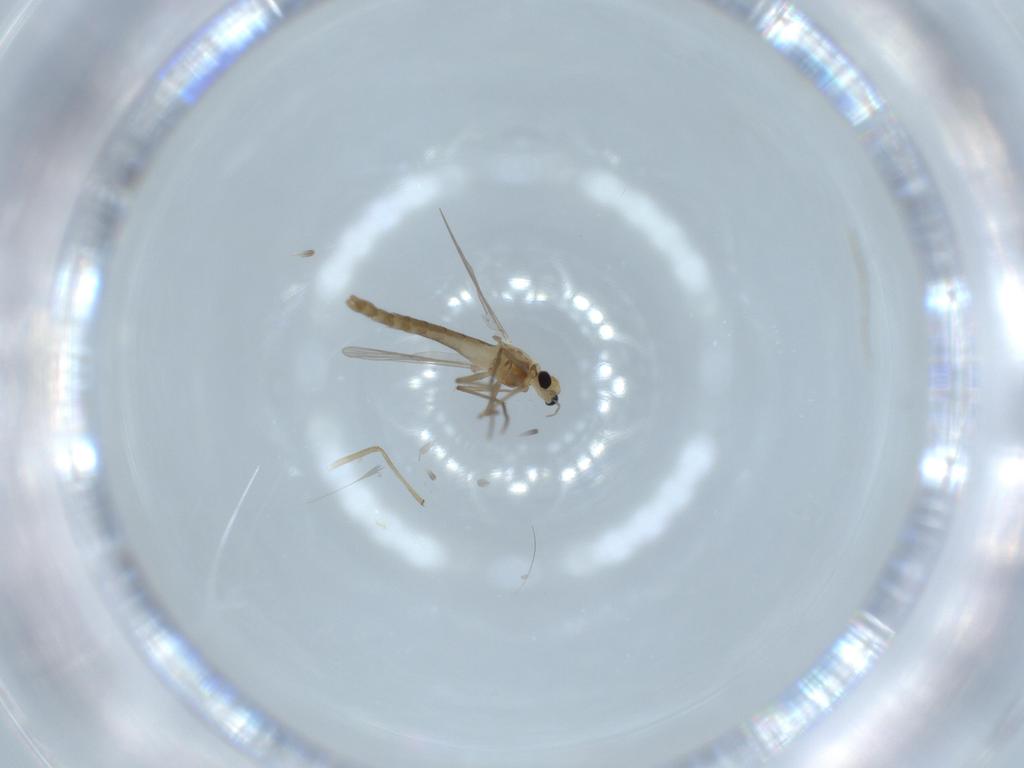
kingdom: Animalia
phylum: Arthropoda
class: Insecta
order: Diptera
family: Chironomidae
